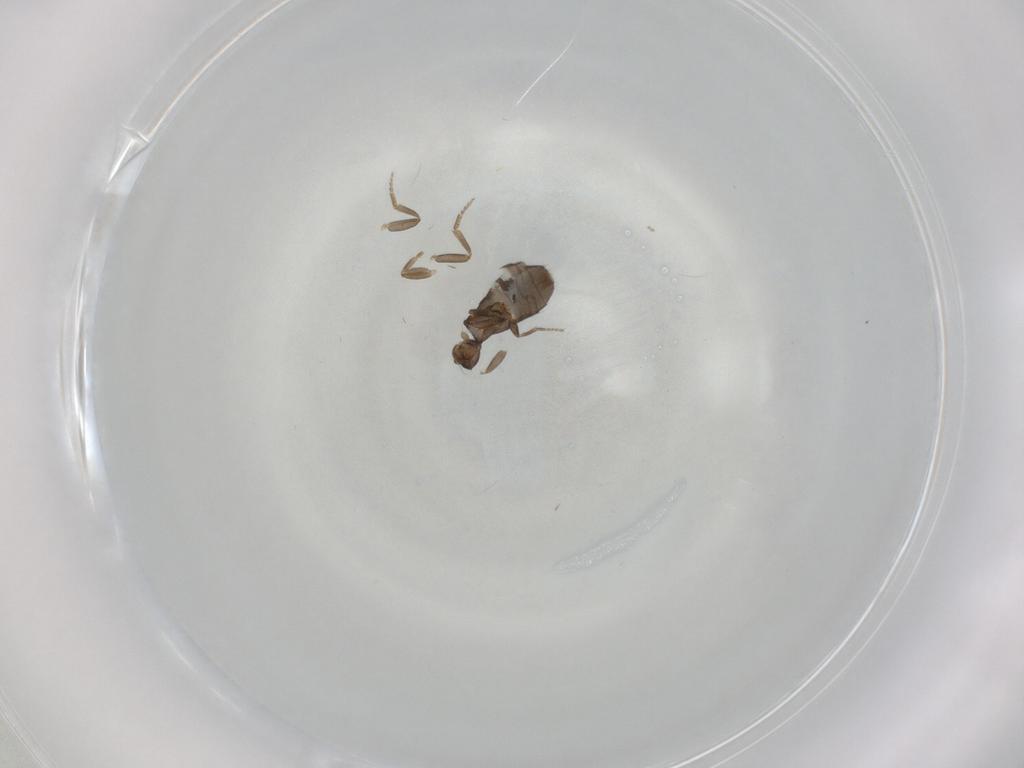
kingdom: Animalia
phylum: Arthropoda
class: Insecta
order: Diptera
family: Phoridae
